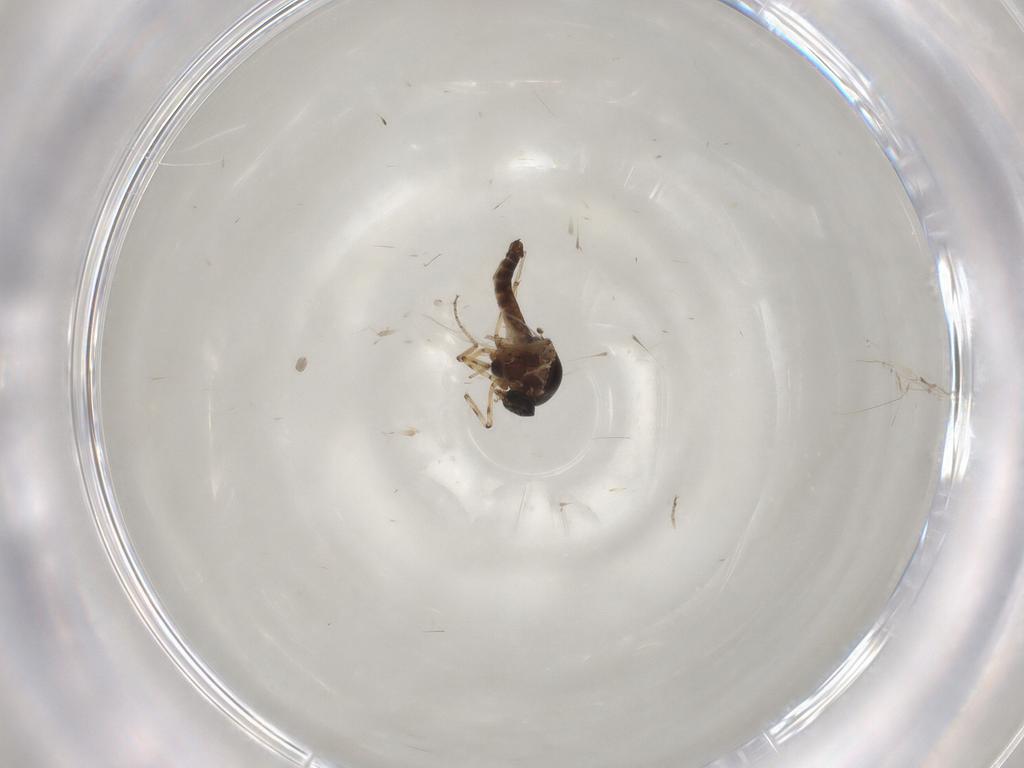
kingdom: Animalia
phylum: Arthropoda
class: Insecta
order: Diptera
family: Ceratopogonidae
